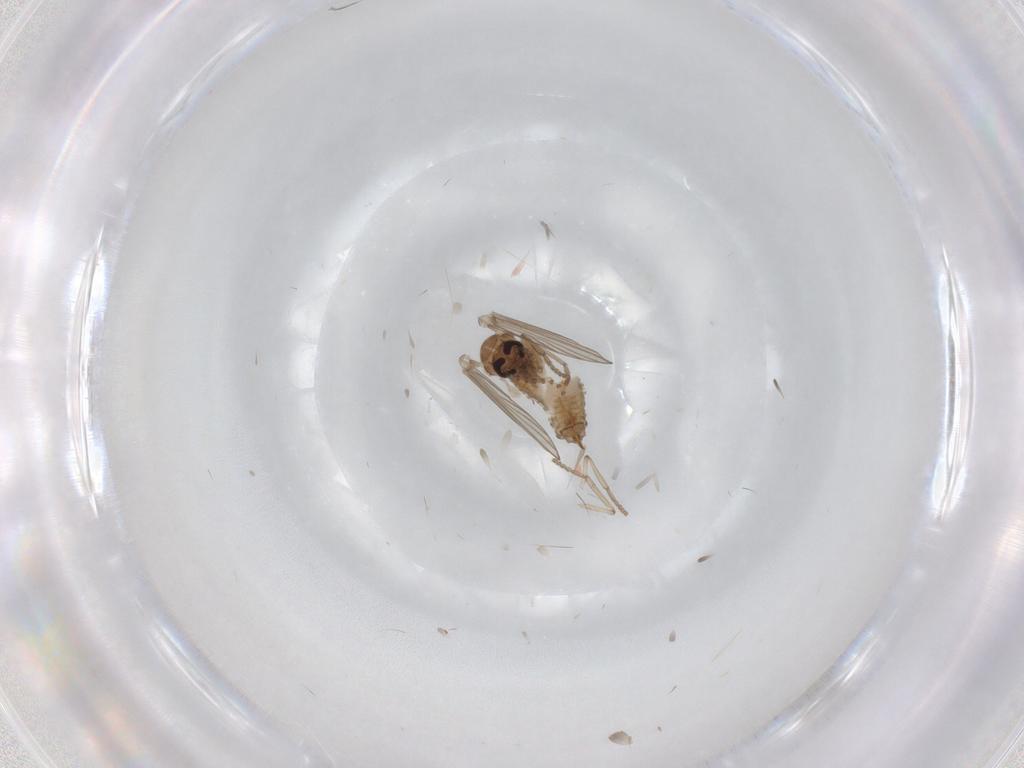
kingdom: Animalia
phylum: Arthropoda
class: Insecta
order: Diptera
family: Psychodidae
